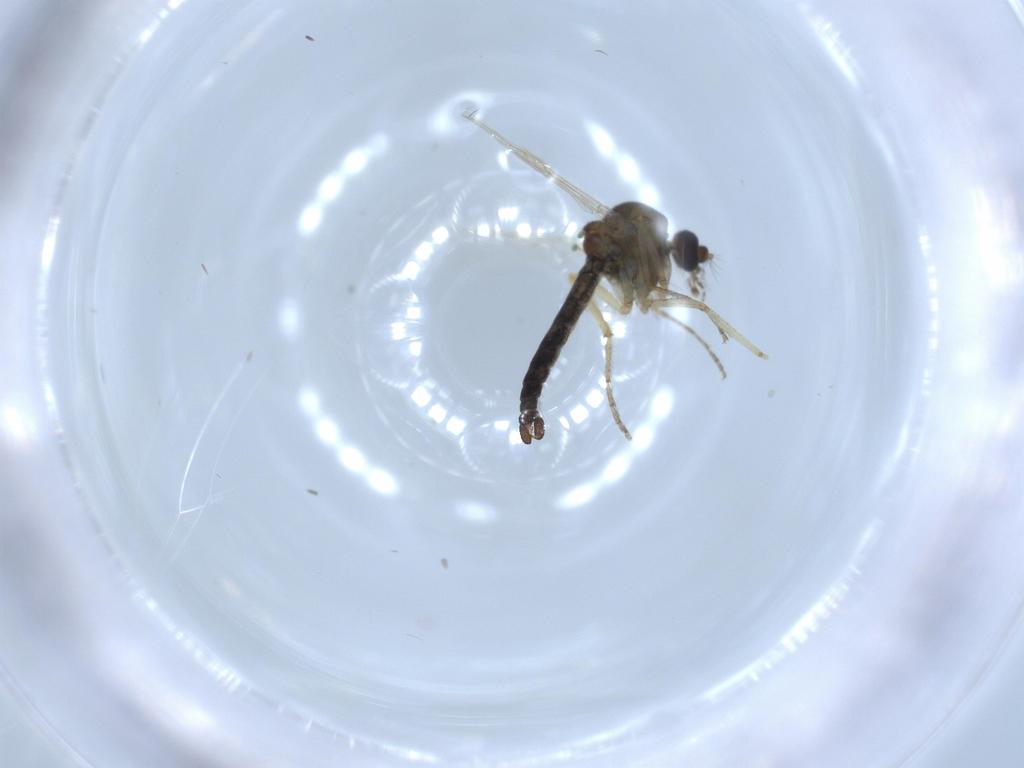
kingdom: Animalia
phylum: Arthropoda
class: Insecta
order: Diptera
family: Ceratopogonidae
